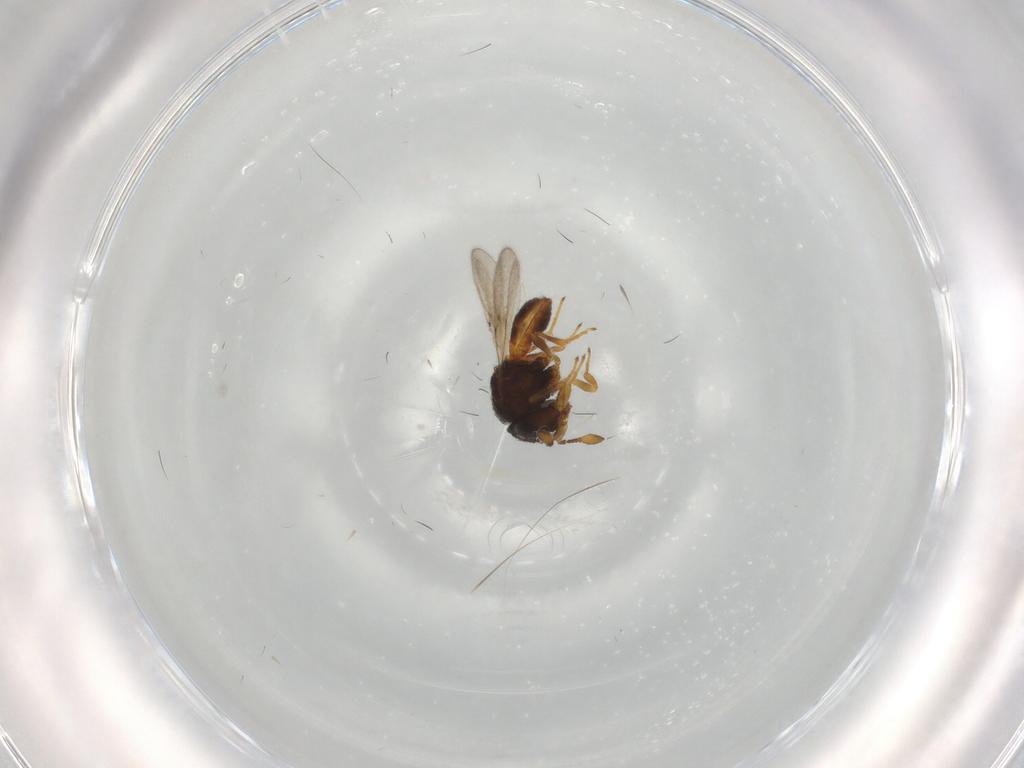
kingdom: Animalia
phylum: Arthropoda
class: Insecta
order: Hymenoptera
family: Scelionidae
